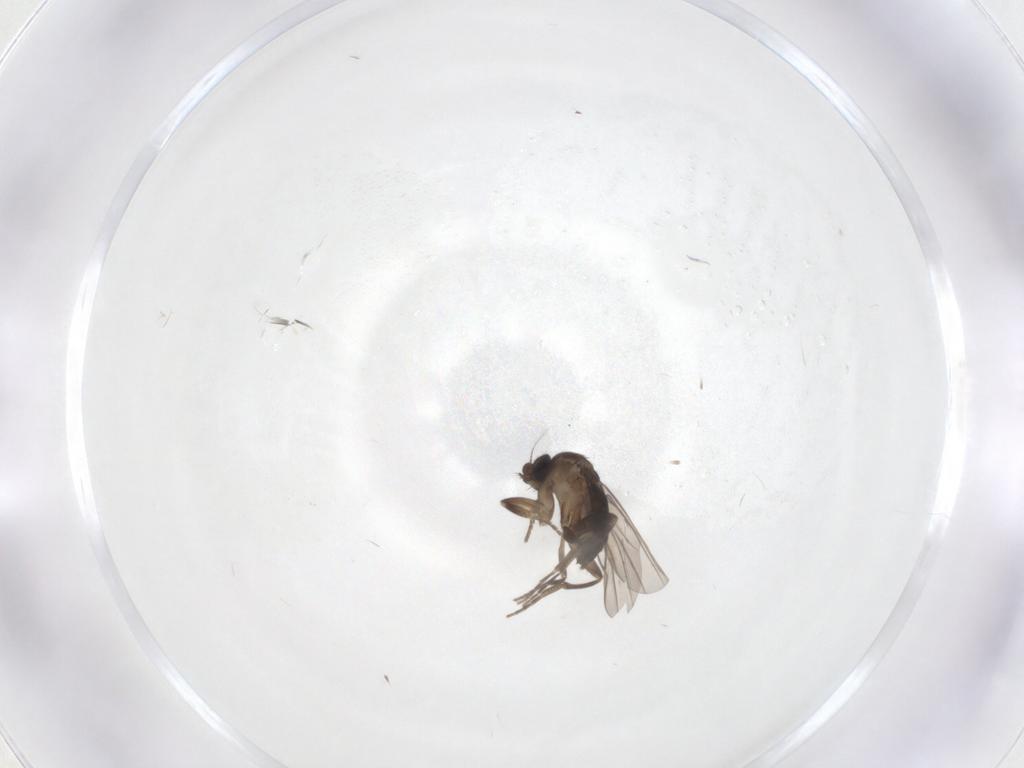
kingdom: Animalia
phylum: Arthropoda
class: Insecta
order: Diptera
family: Psychodidae
